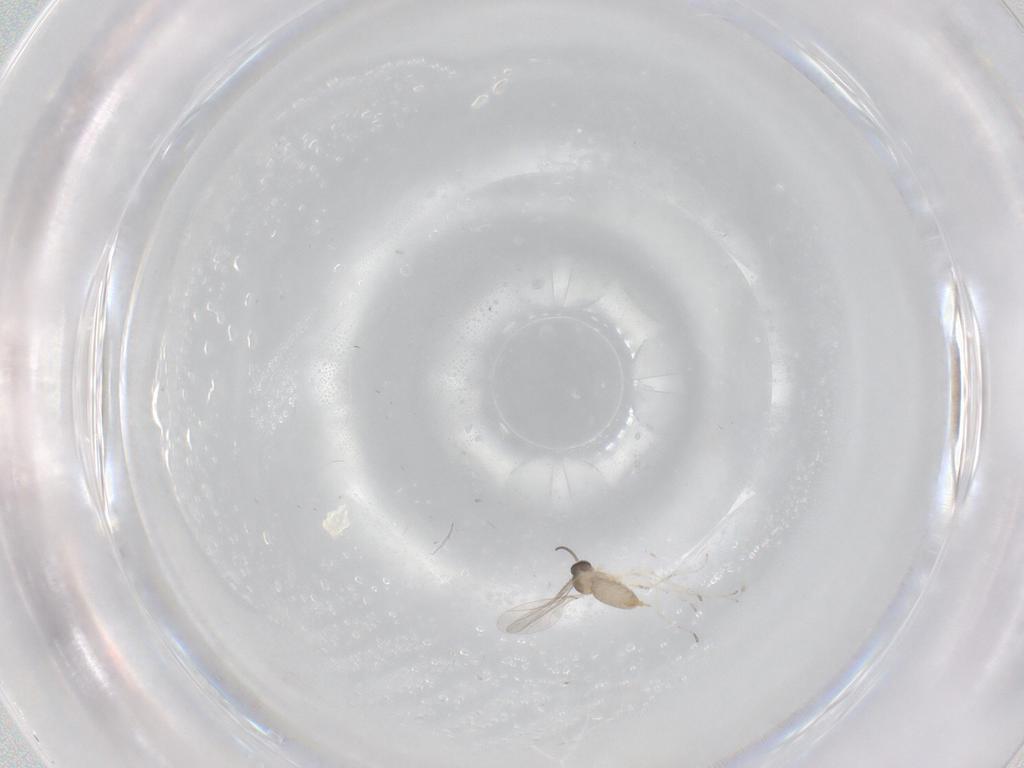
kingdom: Animalia
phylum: Arthropoda
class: Insecta
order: Diptera
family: Cecidomyiidae
